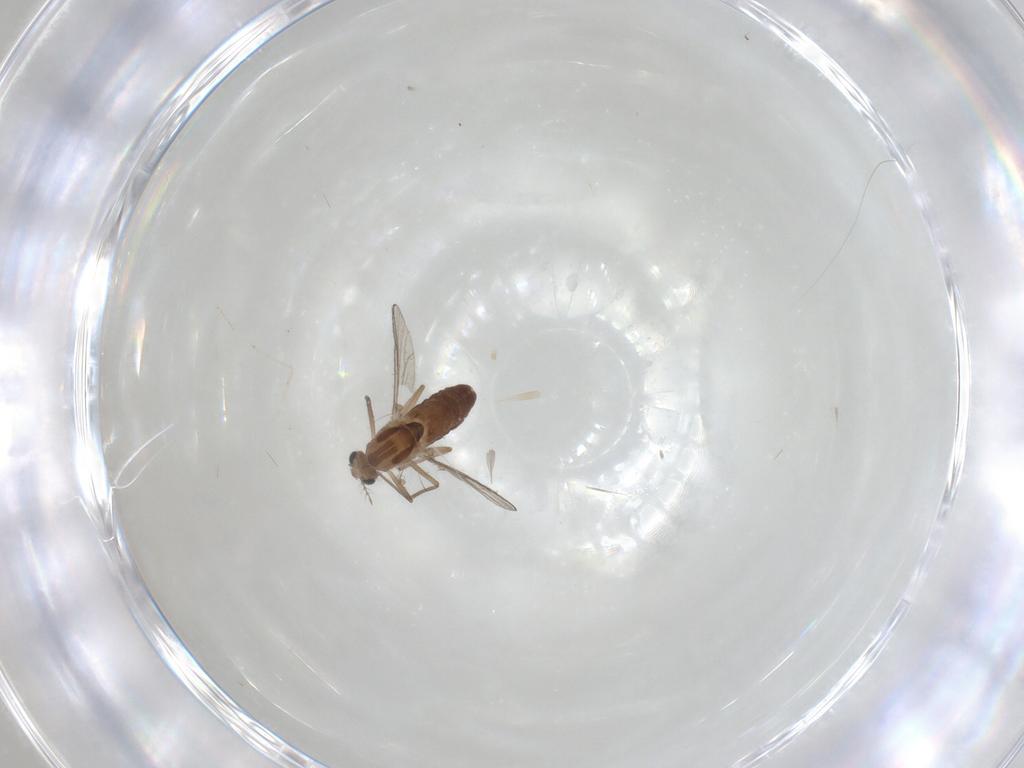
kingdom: Animalia
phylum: Arthropoda
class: Insecta
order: Diptera
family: Chironomidae
